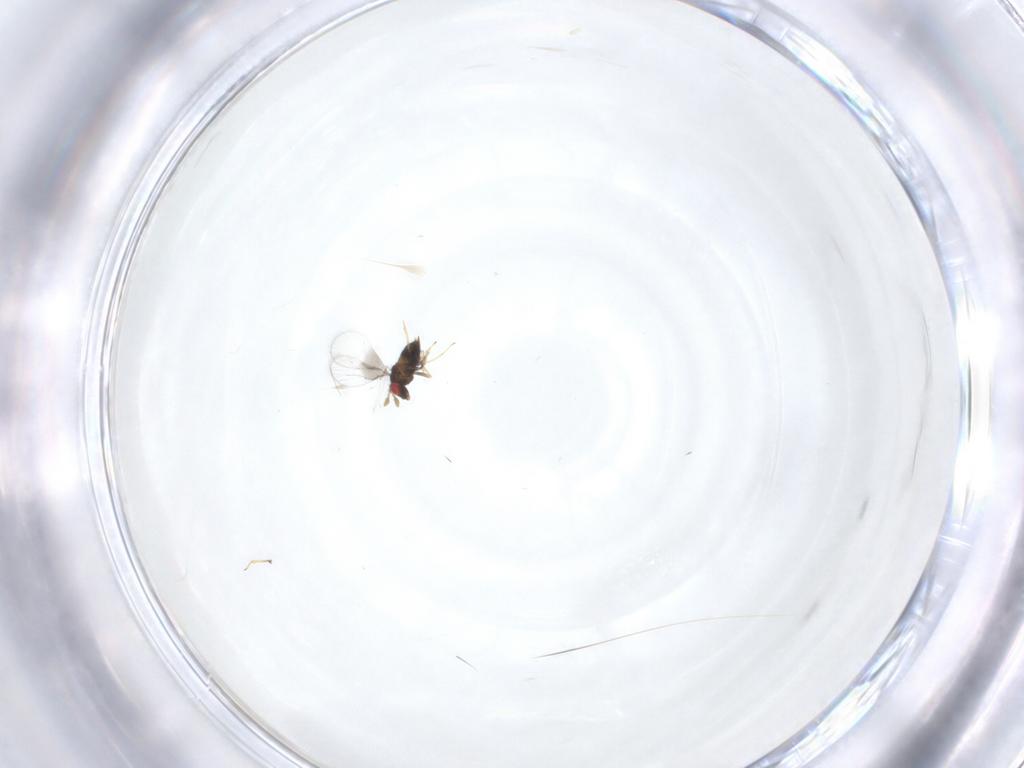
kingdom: Animalia
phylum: Arthropoda
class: Insecta
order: Hymenoptera
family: Trichogrammatidae
